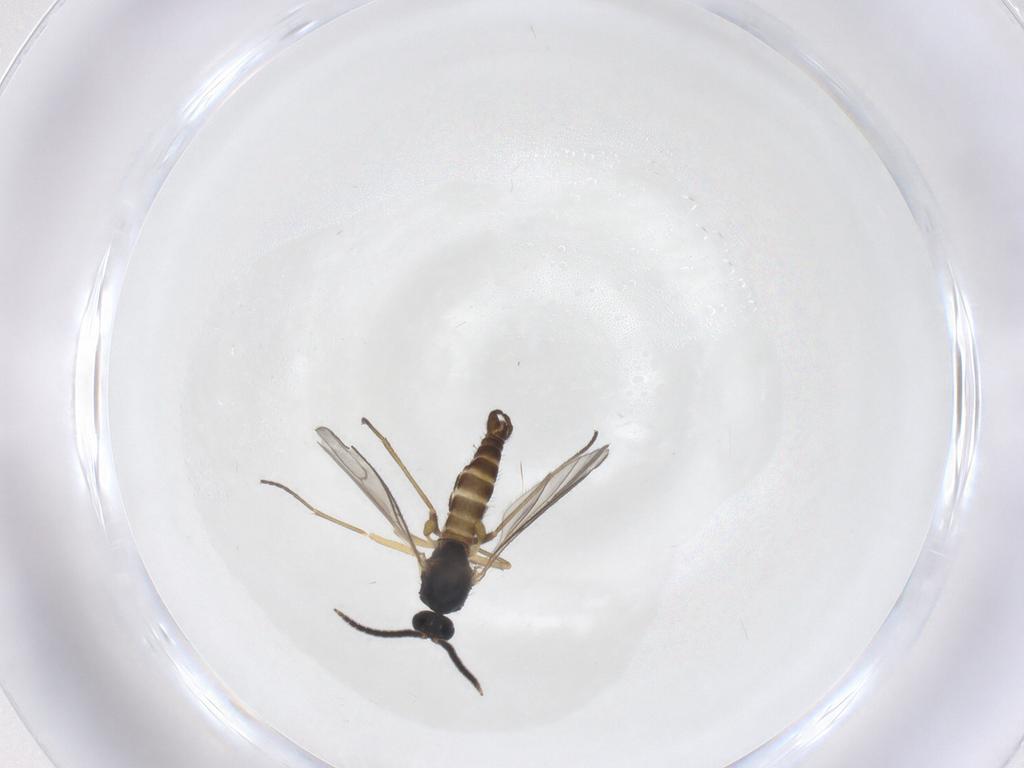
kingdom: Animalia
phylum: Arthropoda
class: Insecta
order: Diptera
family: Sciaridae
